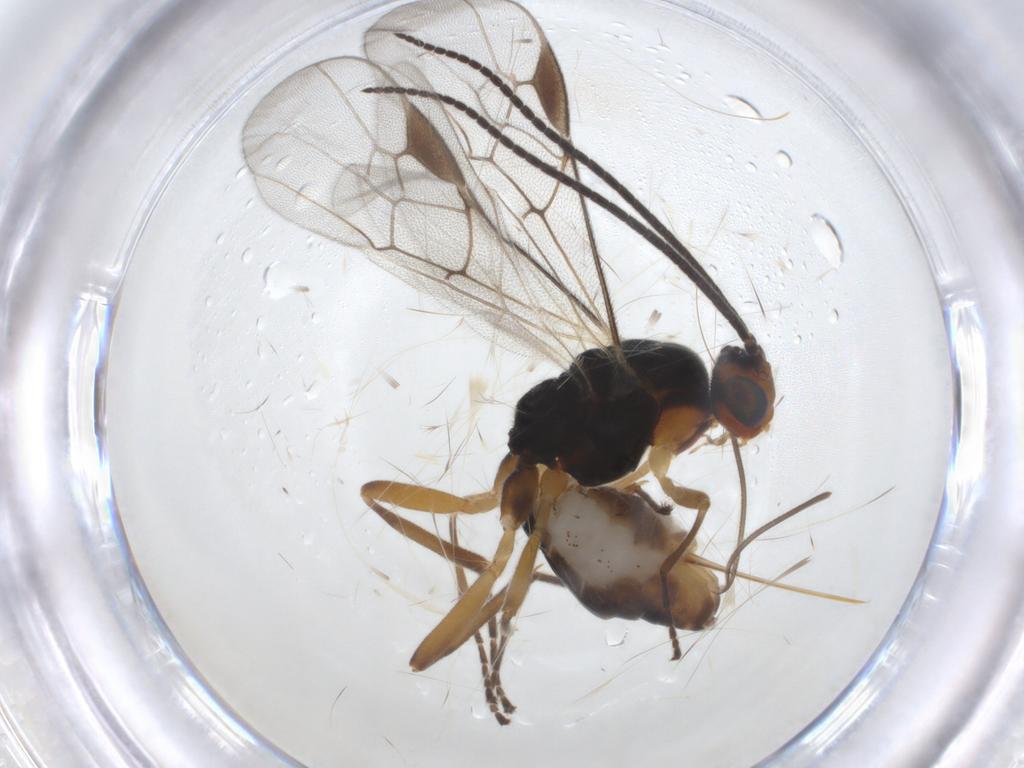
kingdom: Animalia
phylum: Arthropoda
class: Insecta
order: Hymenoptera
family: Braconidae
